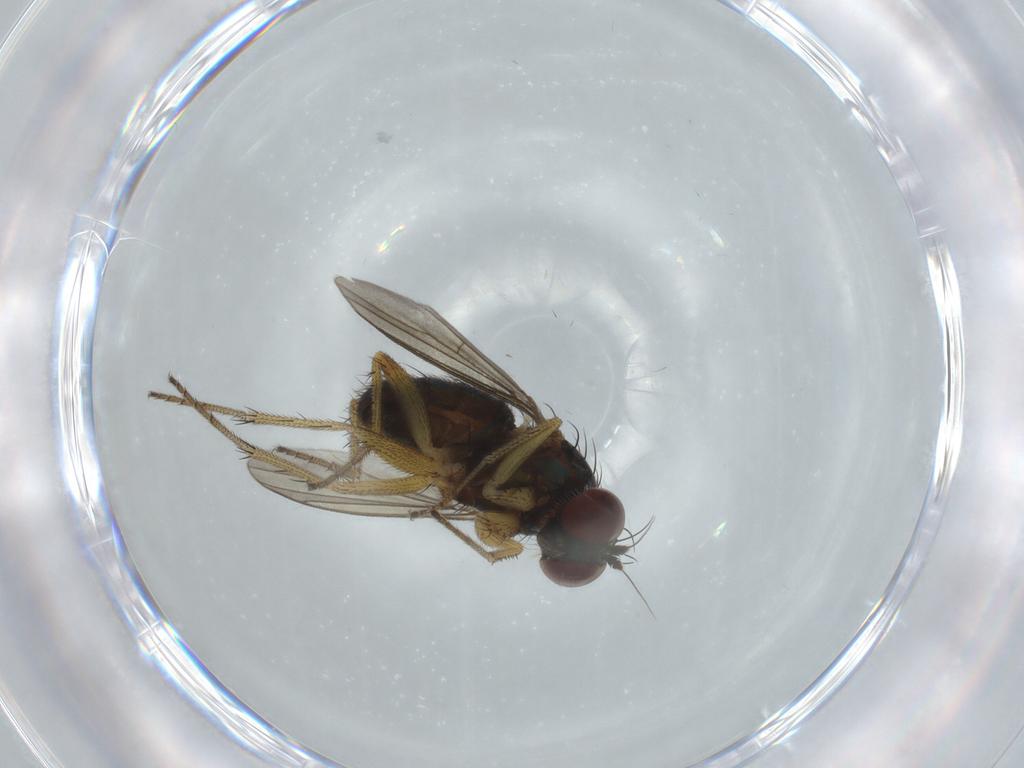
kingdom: Animalia
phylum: Arthropoda
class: Insecta
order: Diptera
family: Dolichopodidae
